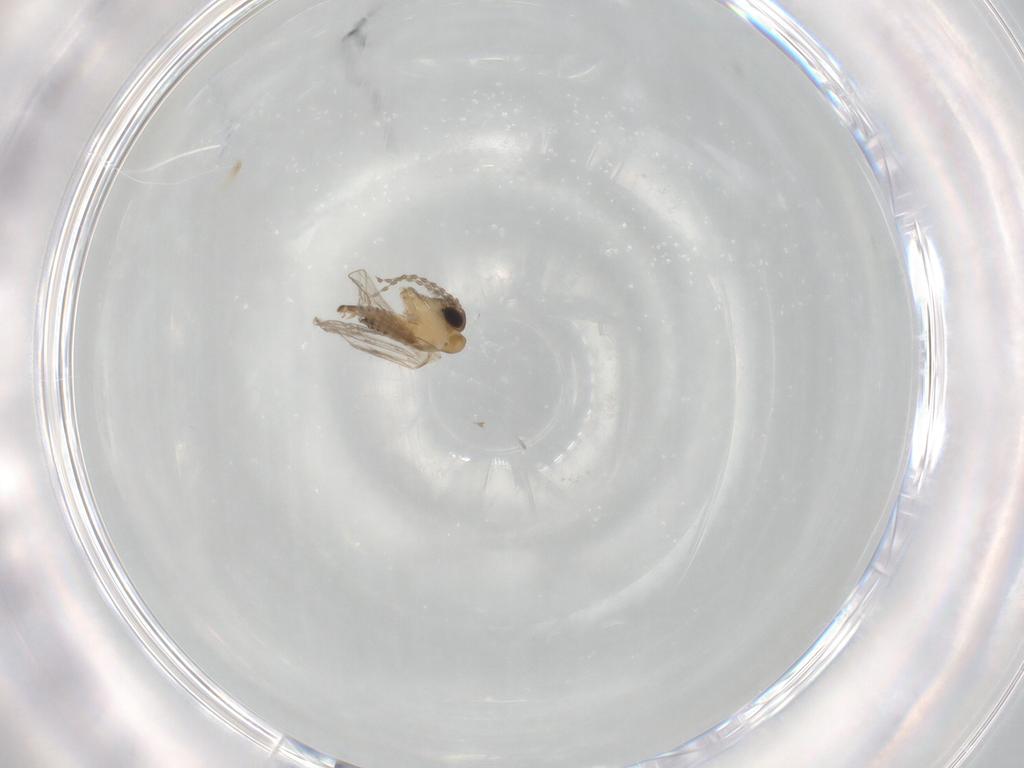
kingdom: Animalia
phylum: Arthropoda
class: Insecta
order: Diptera
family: Psychodidae
